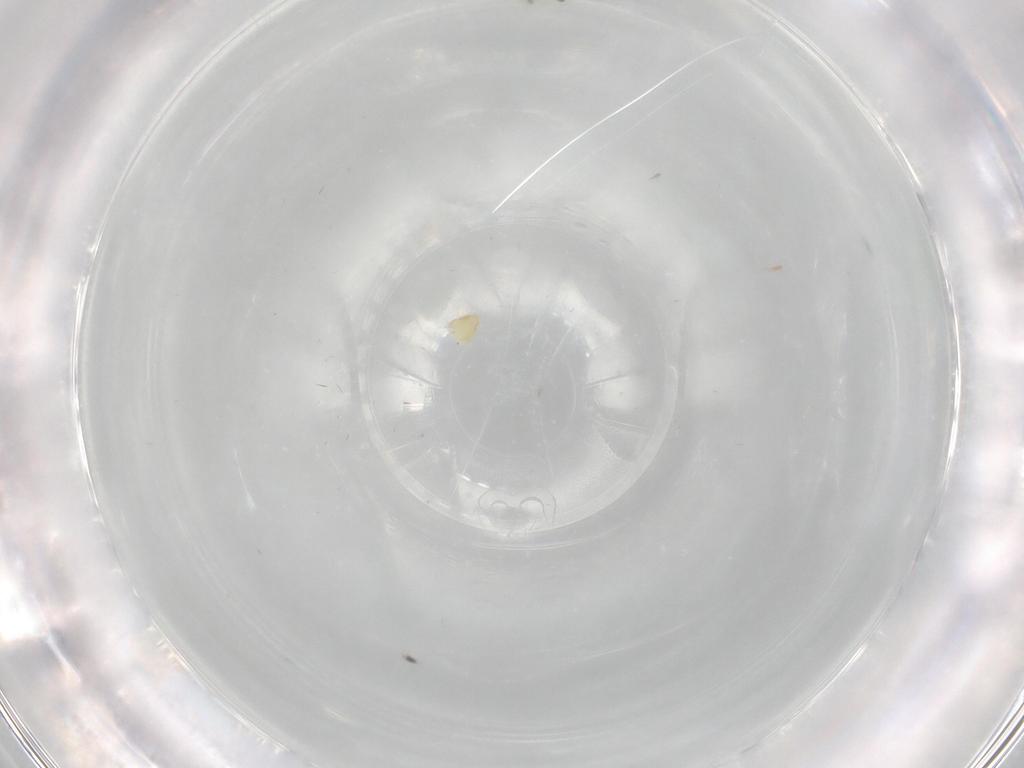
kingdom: Animalia
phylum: Arthropoda
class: Insecta
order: Diptera
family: Chironomidae
